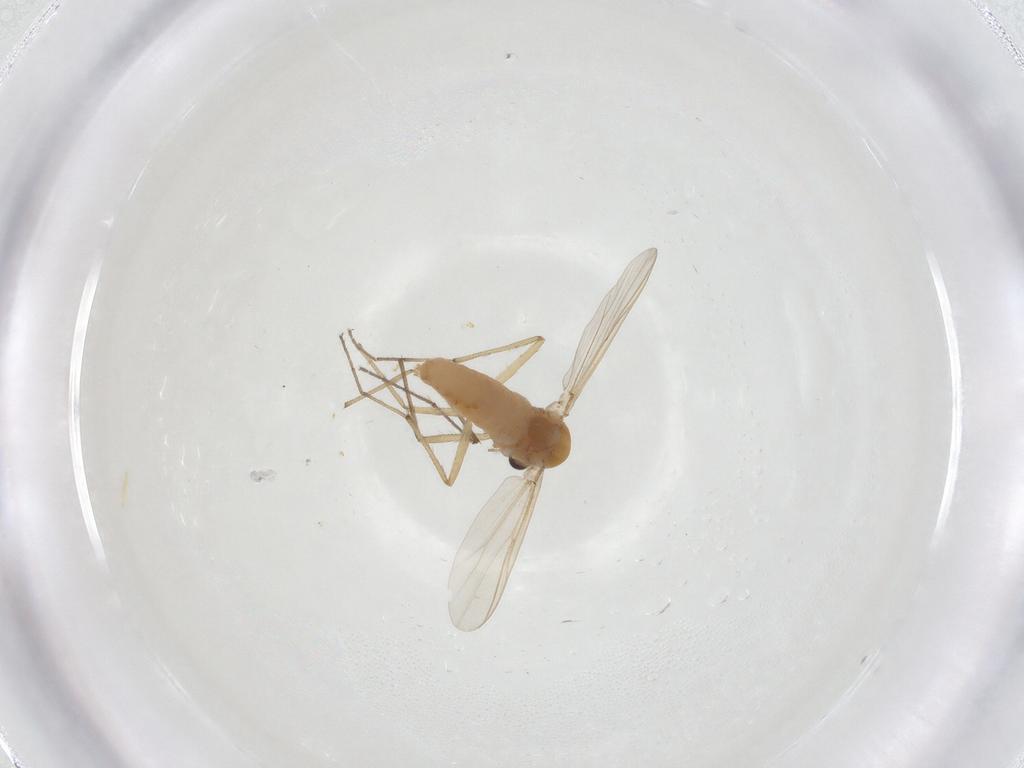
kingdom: Animalia
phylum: Arthropoda
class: Insecta
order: Diptera
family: Chironomidae
